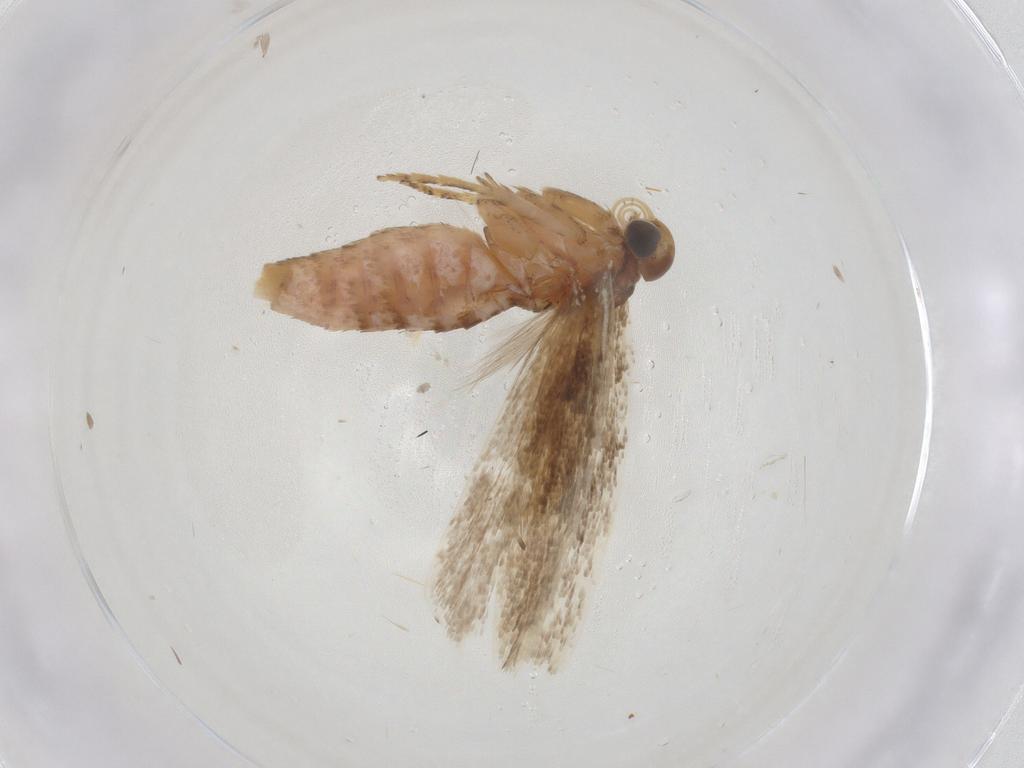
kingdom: Animalia
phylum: Arthropoda
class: Insecta
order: Lepidoptera
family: Gelechiidae
